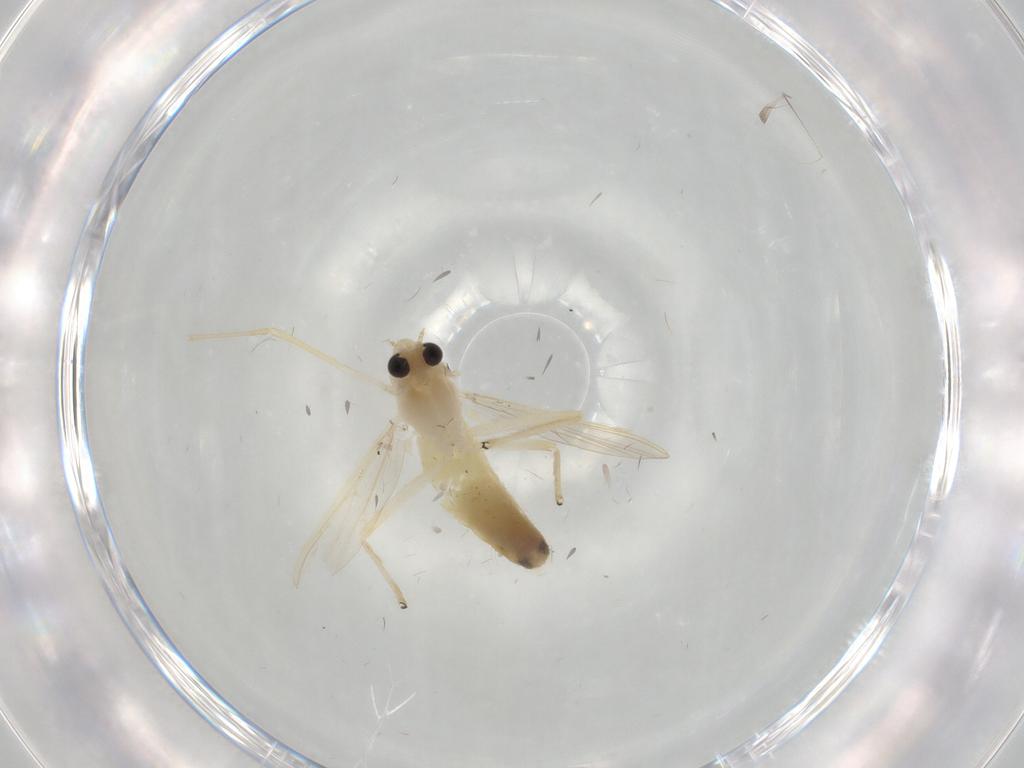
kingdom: Animalia
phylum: Arthropoda
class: Insecta
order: Diptera
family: Chironomidae
